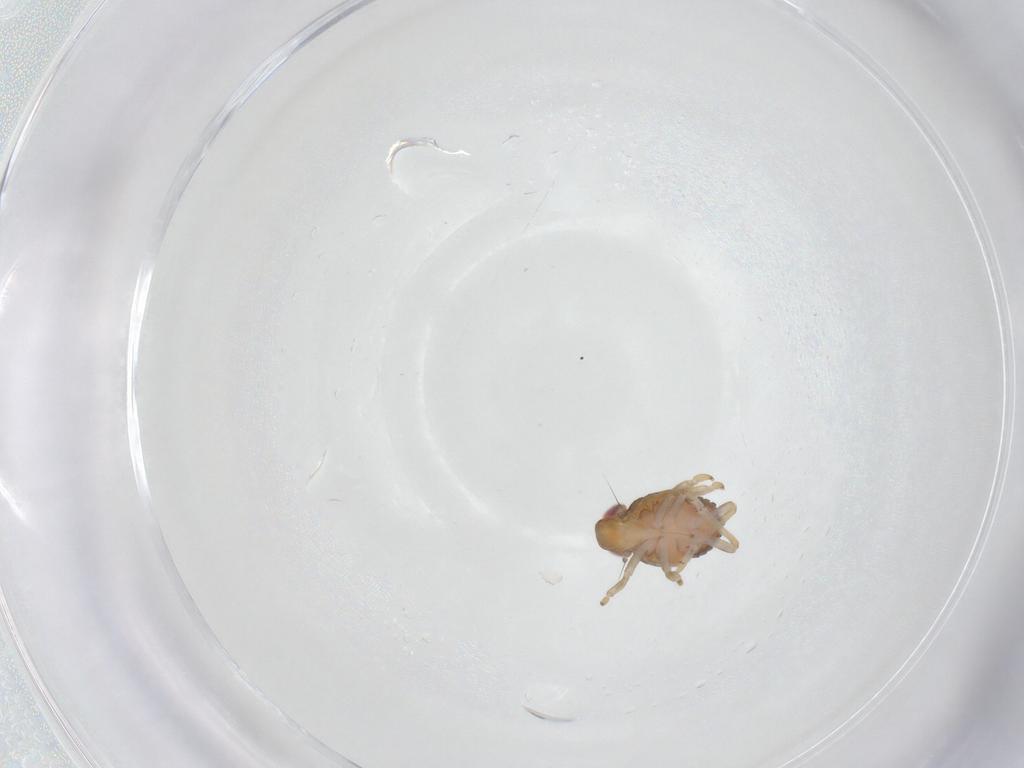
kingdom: Animalia
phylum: Arthropoda
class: Insecta
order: Hemiptera
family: Issidae
